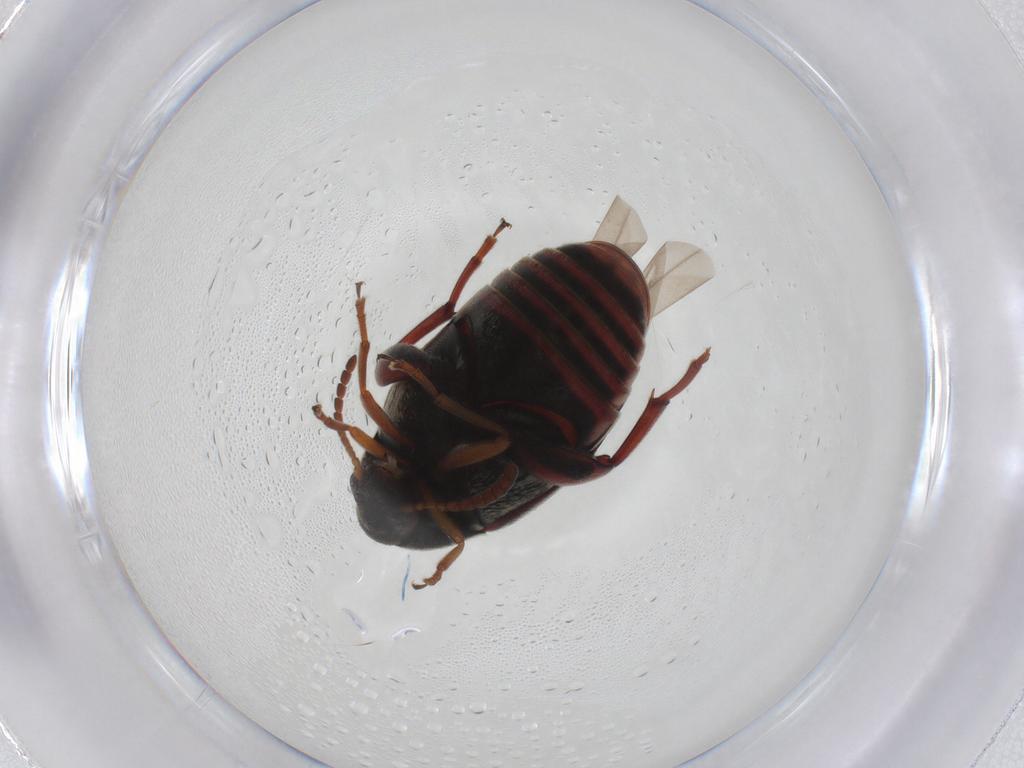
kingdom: Animalia
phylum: Arthropoda
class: Insecta
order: Coleoptera
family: Chrysomelidae
